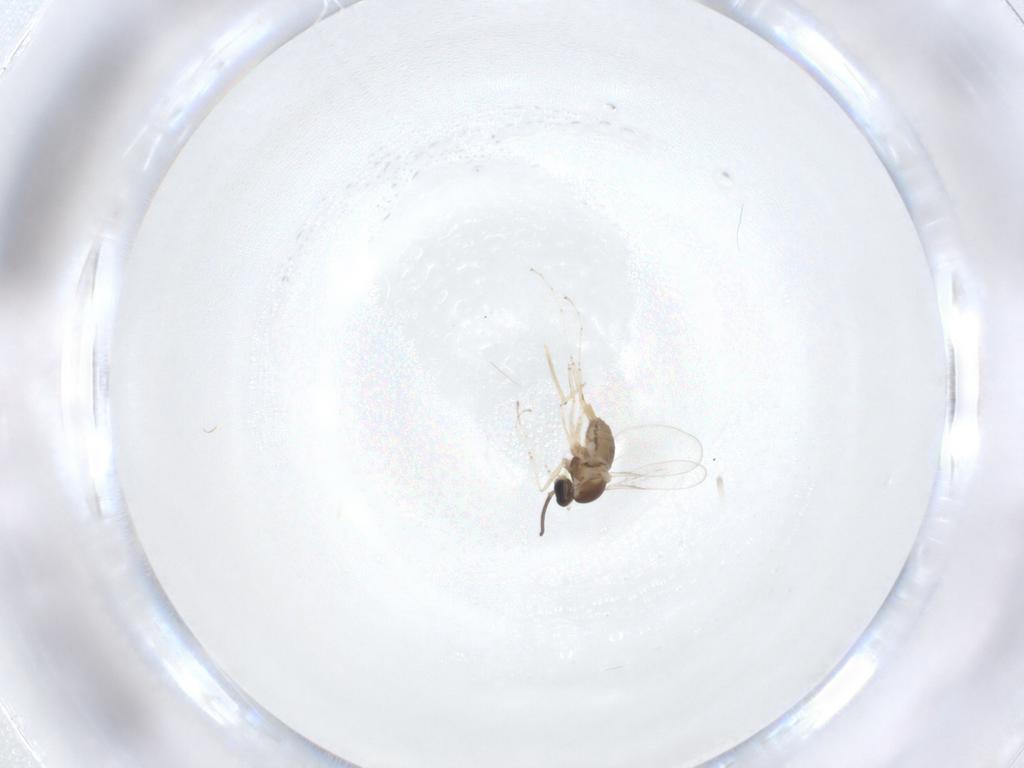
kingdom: Animalia
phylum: Arthropoda
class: Insecta
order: Diptera
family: Cecidomyiidae
